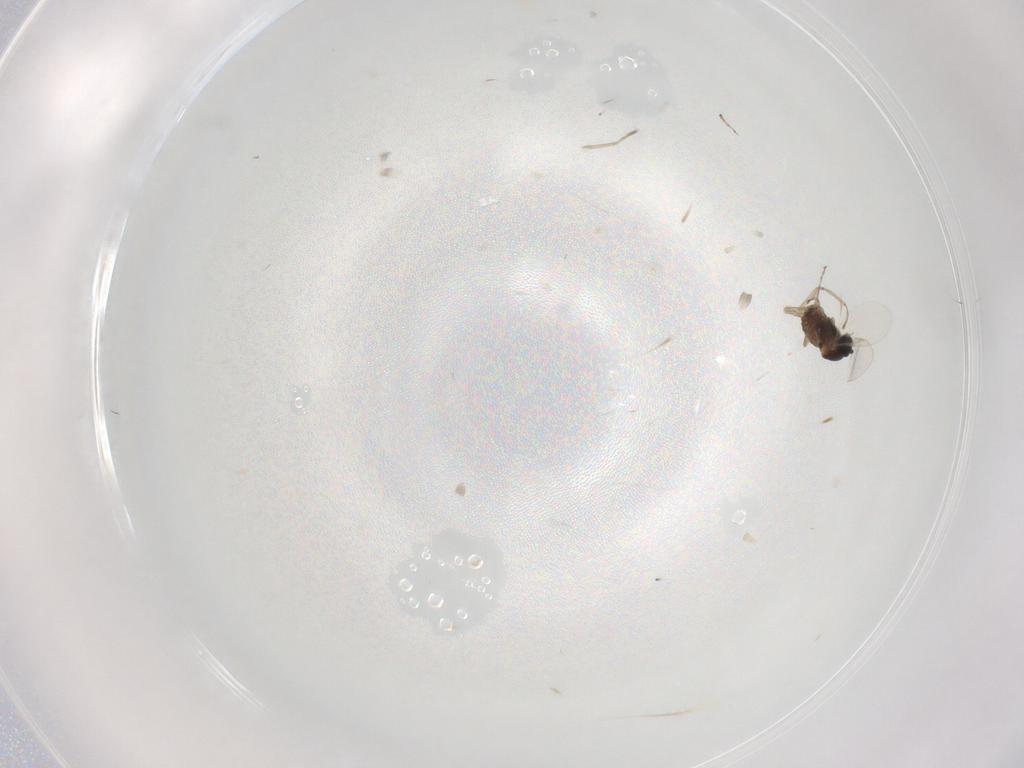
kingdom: Animalia
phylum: Arthropoda
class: Insecta
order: Diptera
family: Cecidomyiidae
